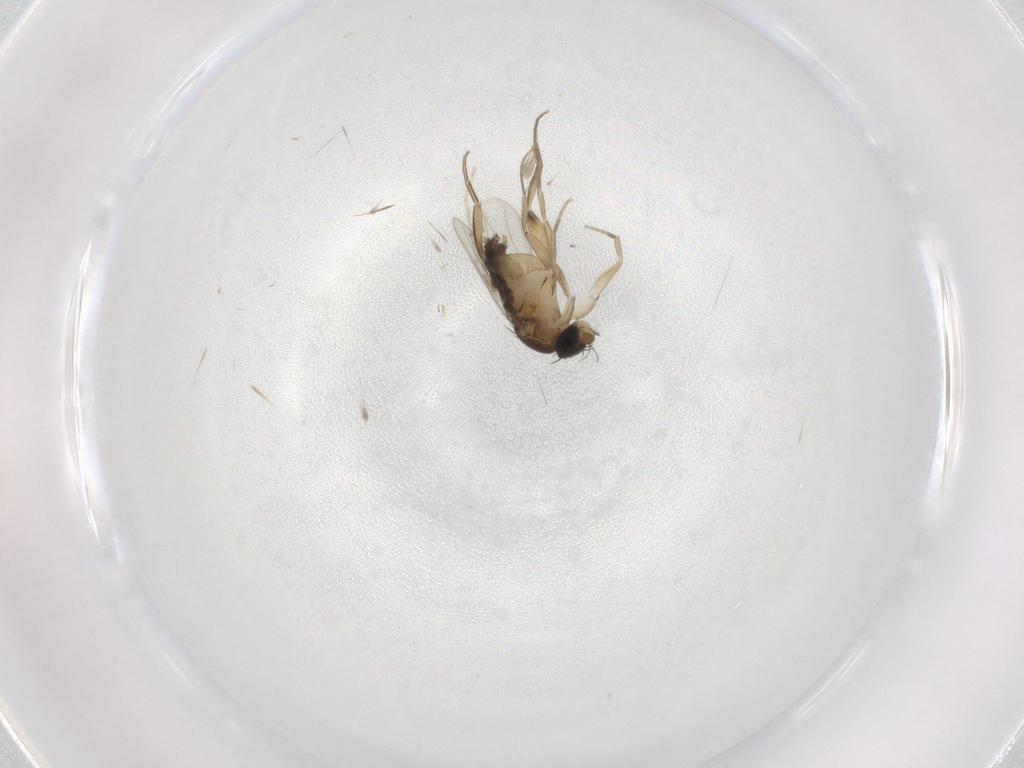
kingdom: Animalia
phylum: Arthropoda
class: Insecta
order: Diptera
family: Phoridae
